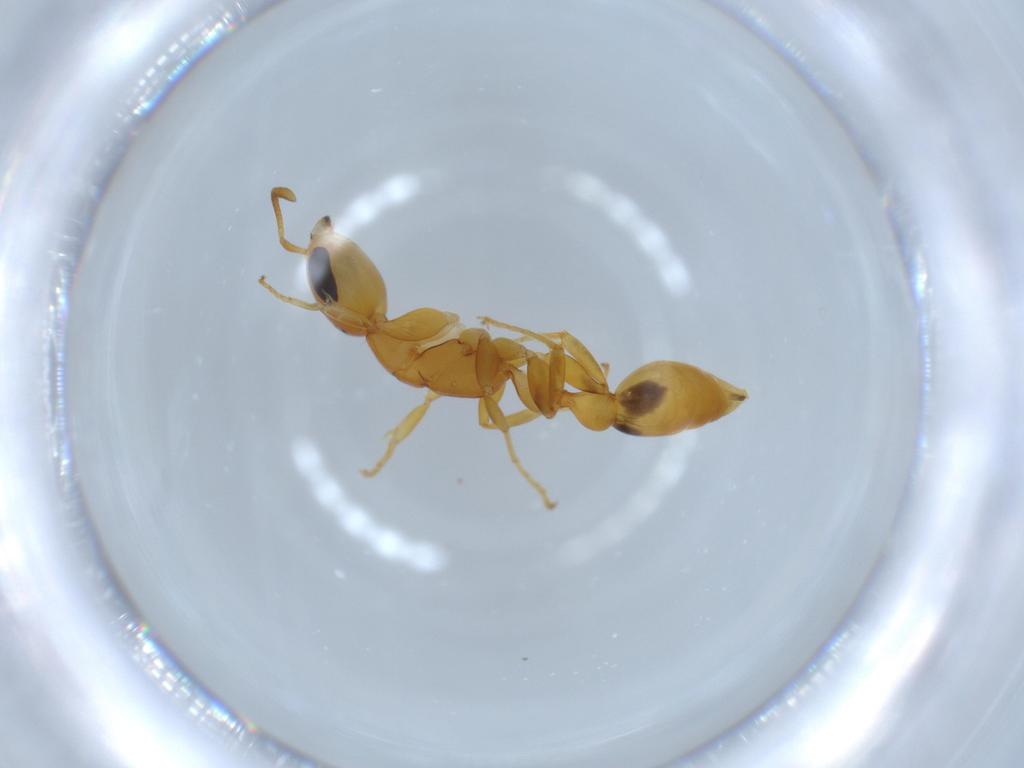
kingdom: Animalia
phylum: Arthropoda
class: Insecta
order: Hymenoptera
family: Formicidae
